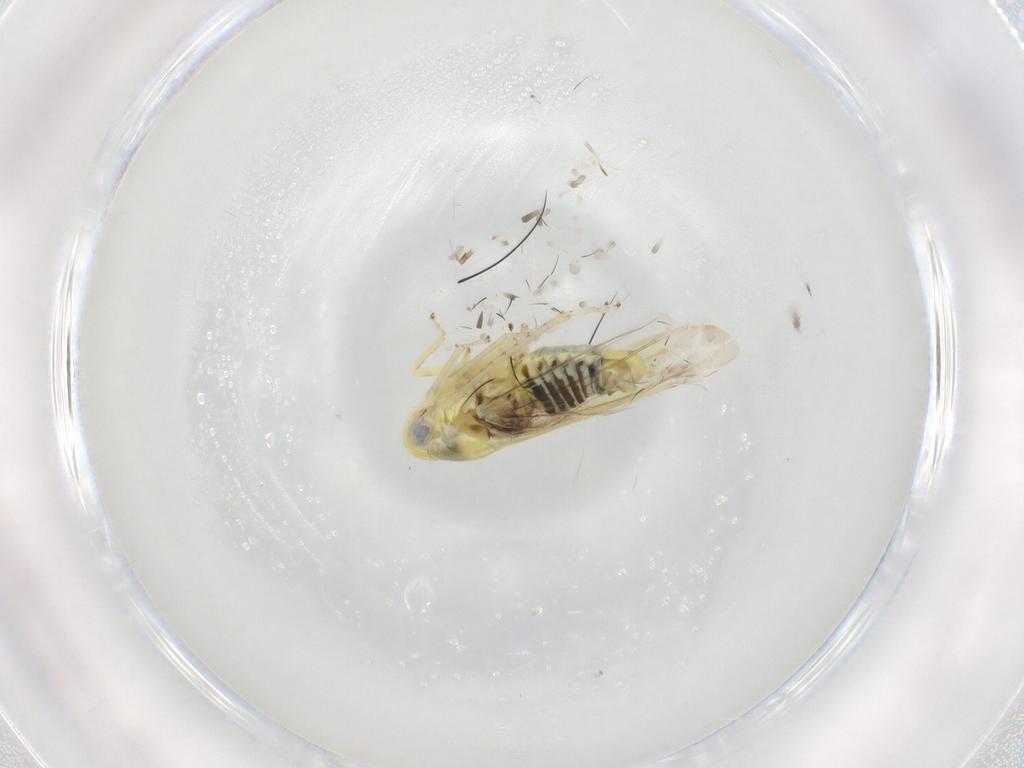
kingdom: Animalia
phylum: Arthropoda
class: Insecta
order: Hemiptera
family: Cicadellidae
